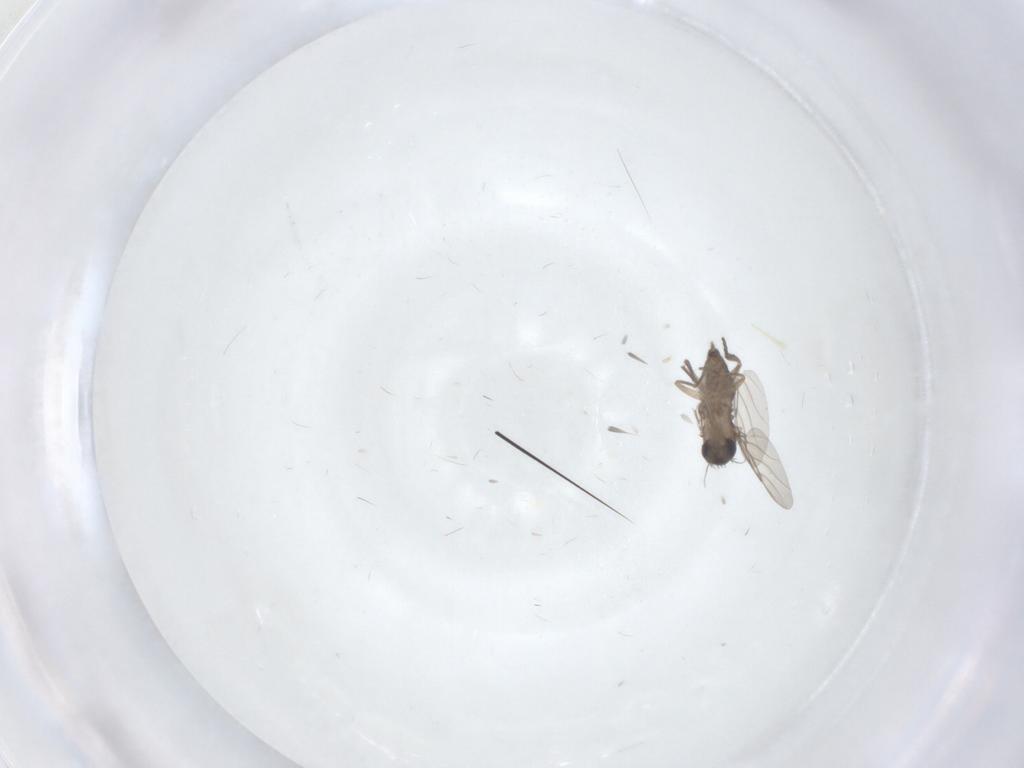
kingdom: Animalia
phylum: Arthropoda
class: Insecta
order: Diptera
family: Phoridae
